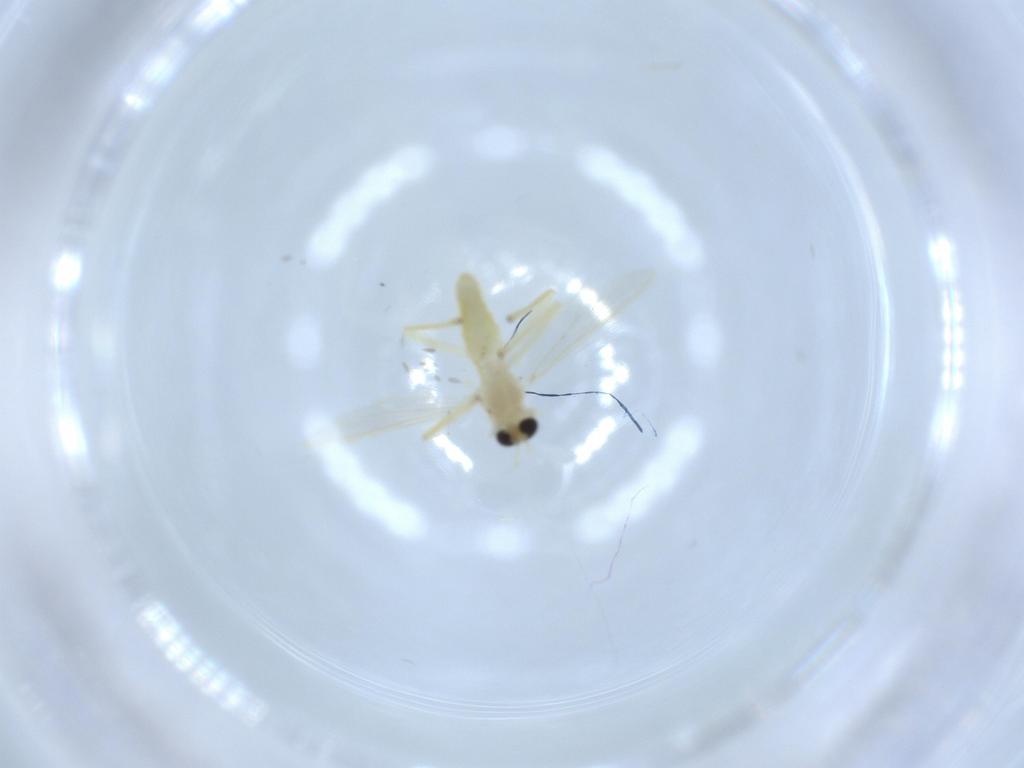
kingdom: Animalia
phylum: Arthropoda
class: Insecta
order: Diptera
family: Chironomidae
